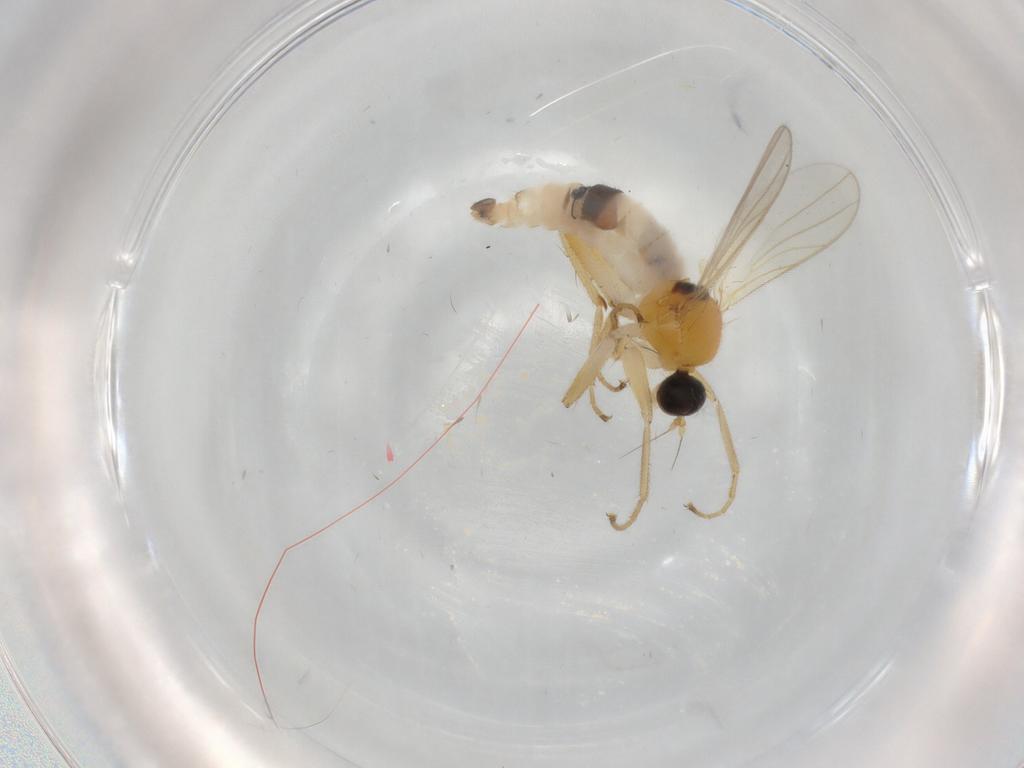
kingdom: Animalia
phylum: Arthropoda
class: Insecta
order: Diptera
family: Hybotidae
